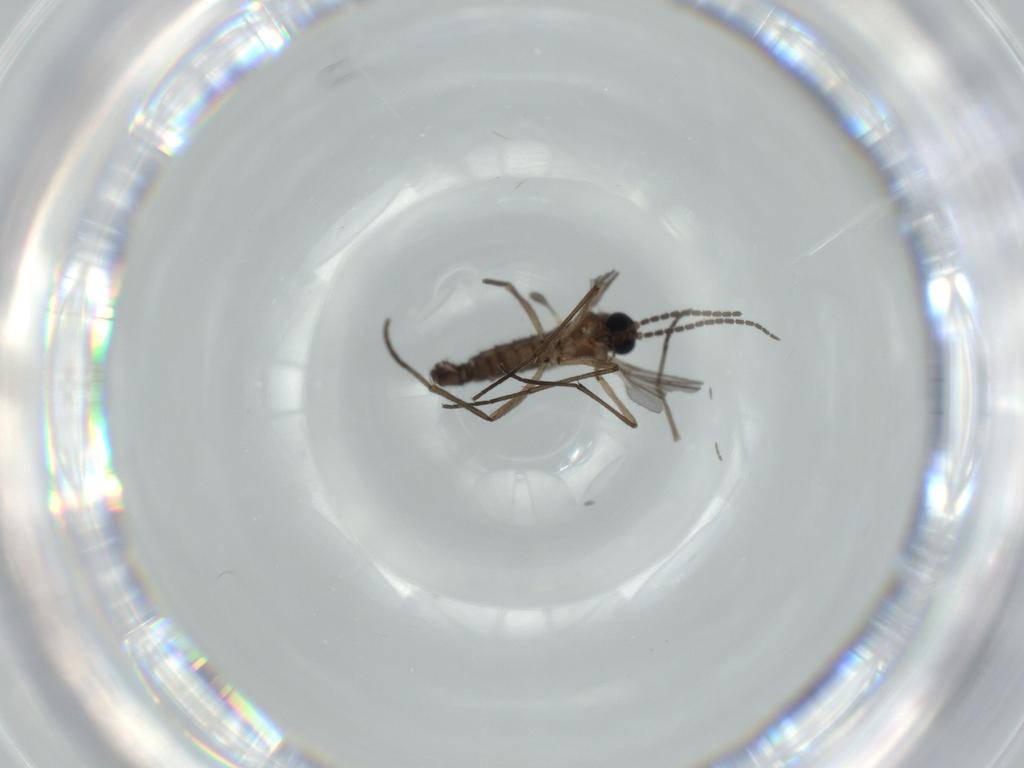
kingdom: Animalia
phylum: Arthropoda
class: Insecta
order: Diptera
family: Sciaridae
